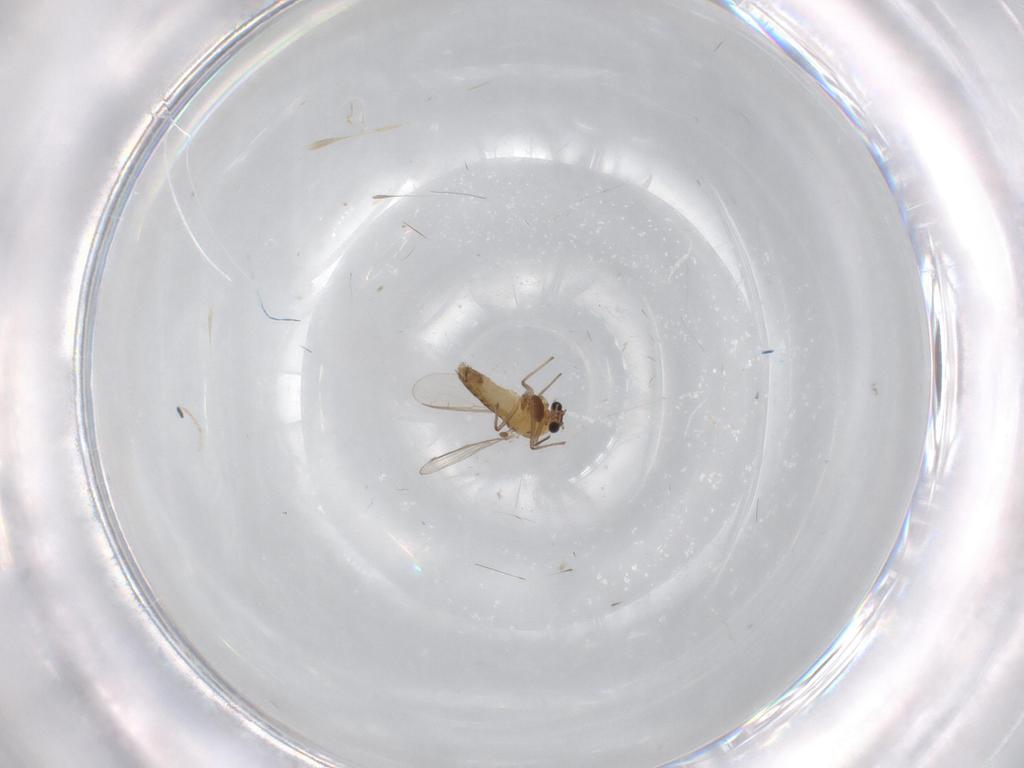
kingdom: Animalia
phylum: Arthropoda
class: Insecta
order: Diptera
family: Chironomidae
